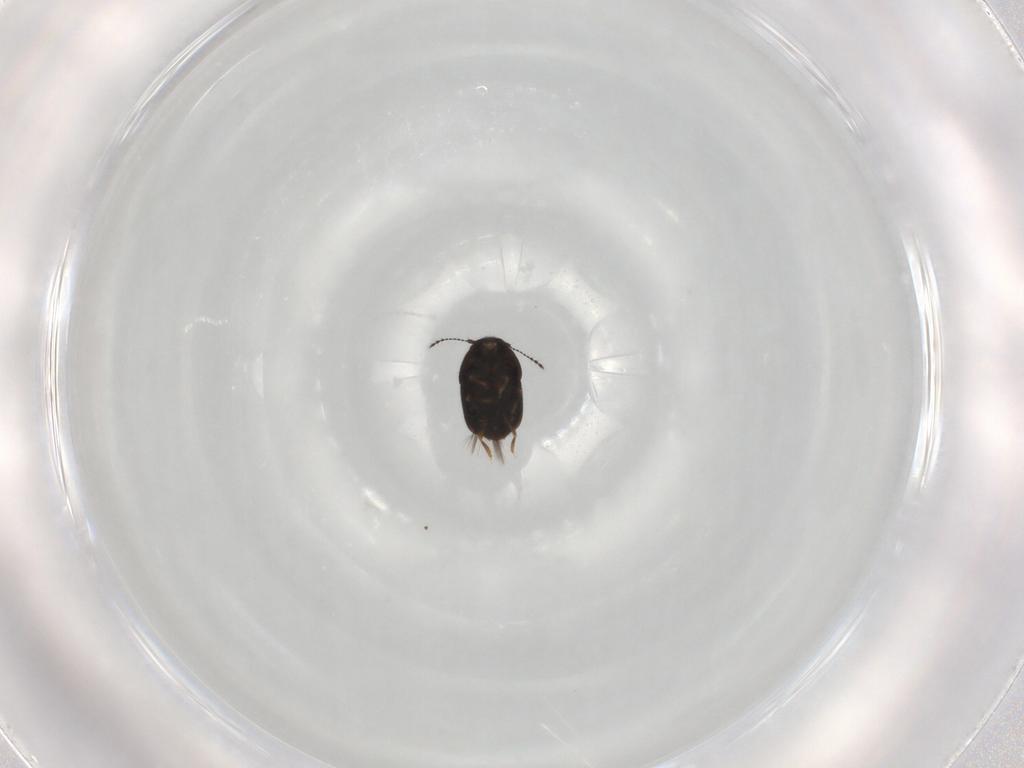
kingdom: Animalia
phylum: Arthropoda
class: Insecta
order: Coleoptera
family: Ptiliidae
